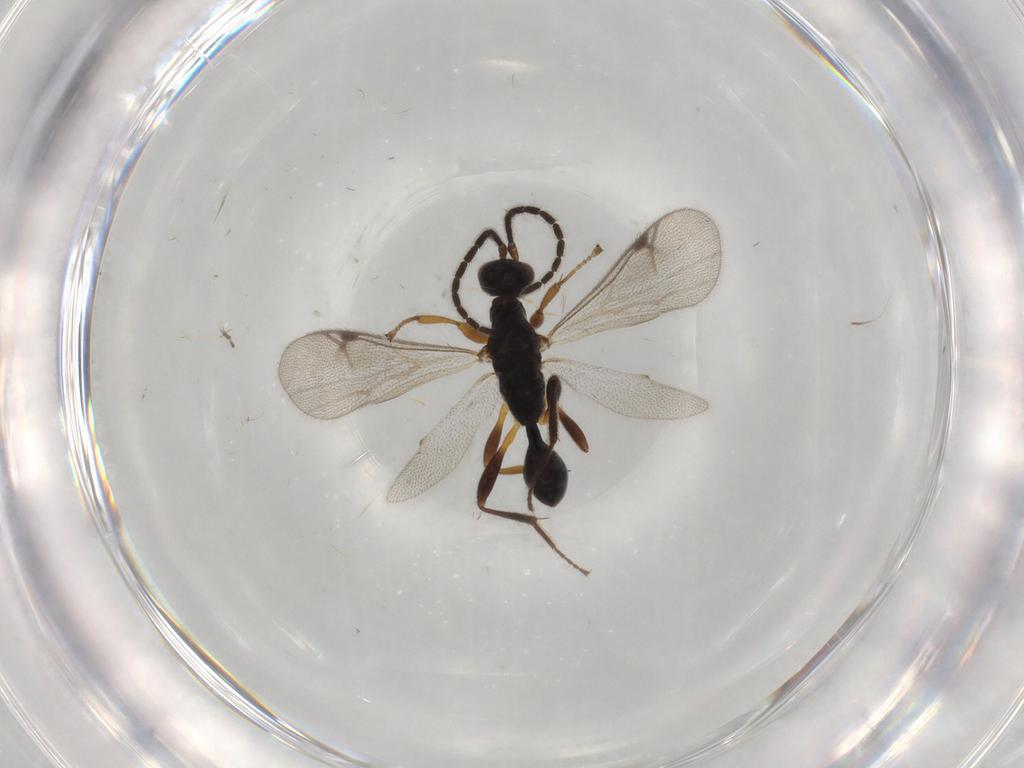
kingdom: Animalia
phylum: Arthropoda
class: Insecta
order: Hymenoptera
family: Proctotrupidae
